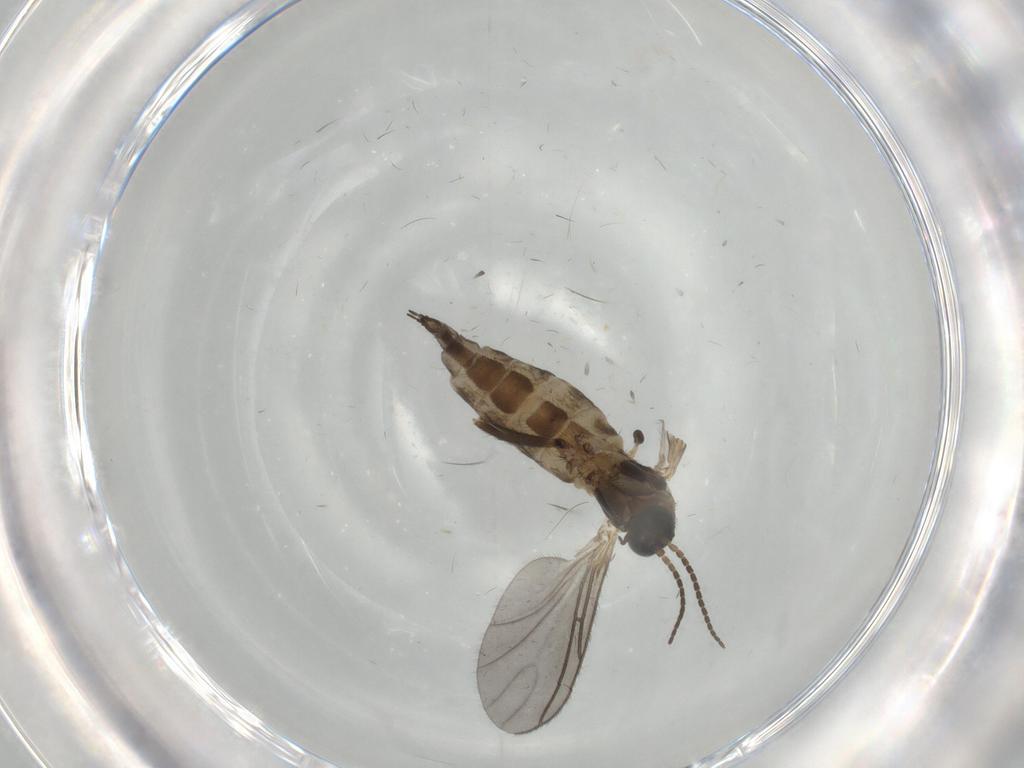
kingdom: Animalia
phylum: Arthropoda
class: Insecta
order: Diptera
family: Sciaridae
